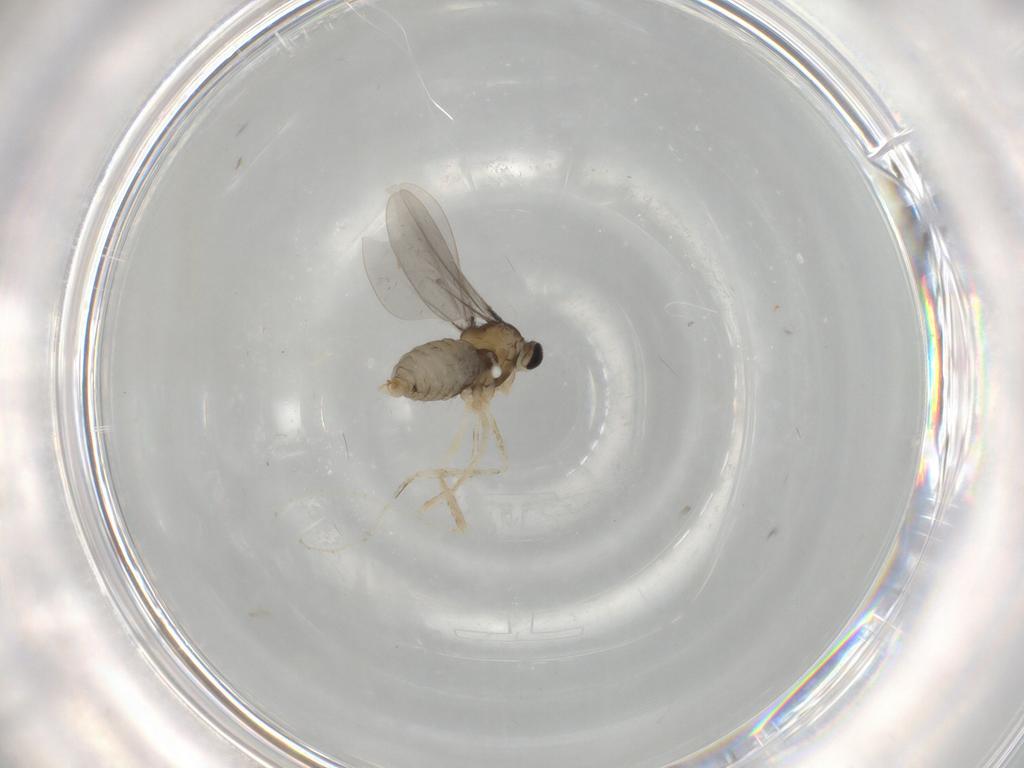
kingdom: Animalia
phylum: Arthropoda
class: Insecta
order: Diptera
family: Cecidomyiidae
